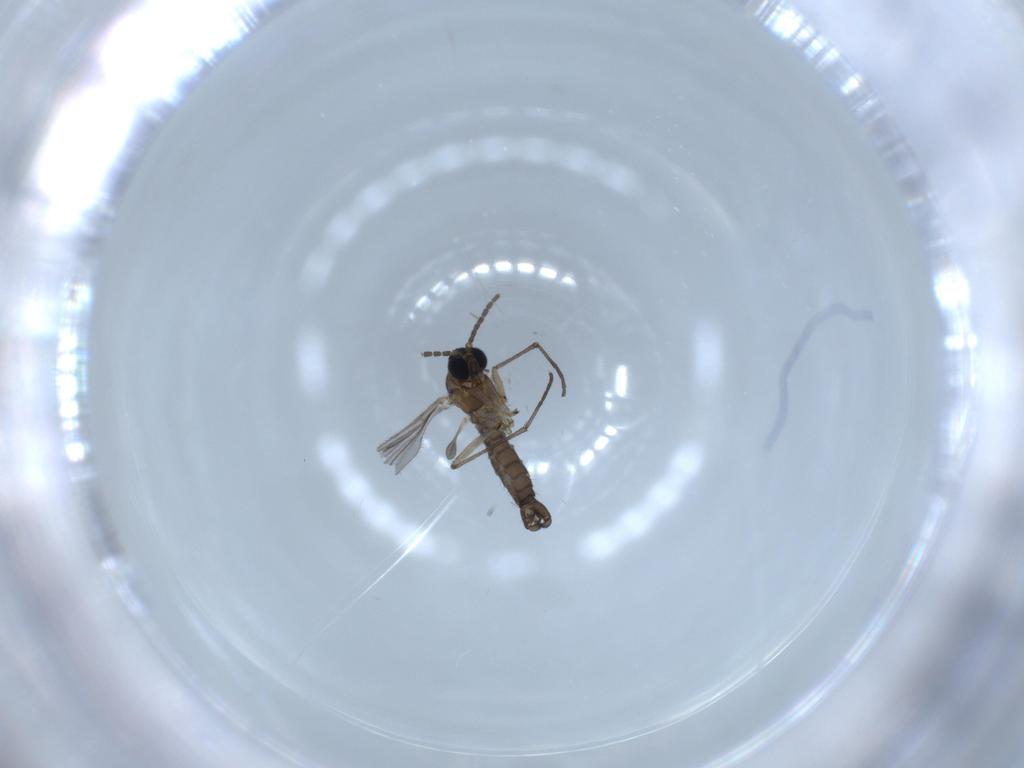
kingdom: Animalia
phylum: Arthropoda
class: Insecta
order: Diptera
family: Sciaridae
